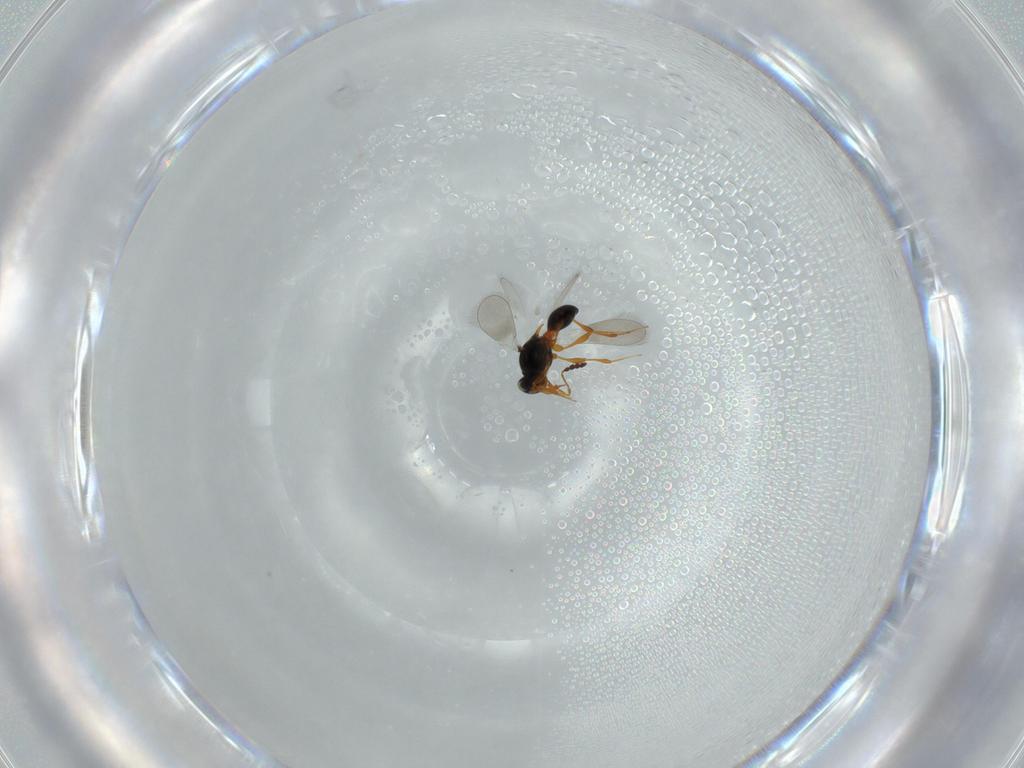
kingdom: Animalia
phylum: Arthropoda
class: Insecta
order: Hymenoptera
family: Platygastridae
